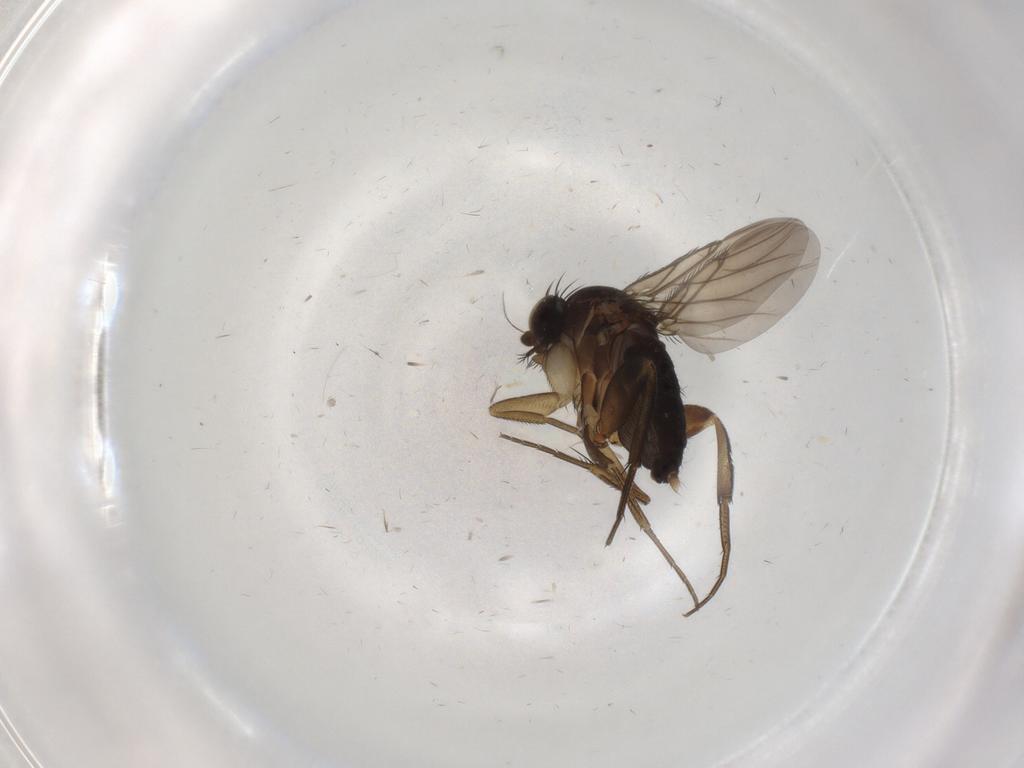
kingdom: Animalia
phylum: Arthropoda
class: Insecta
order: Diptera
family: Phoridae
